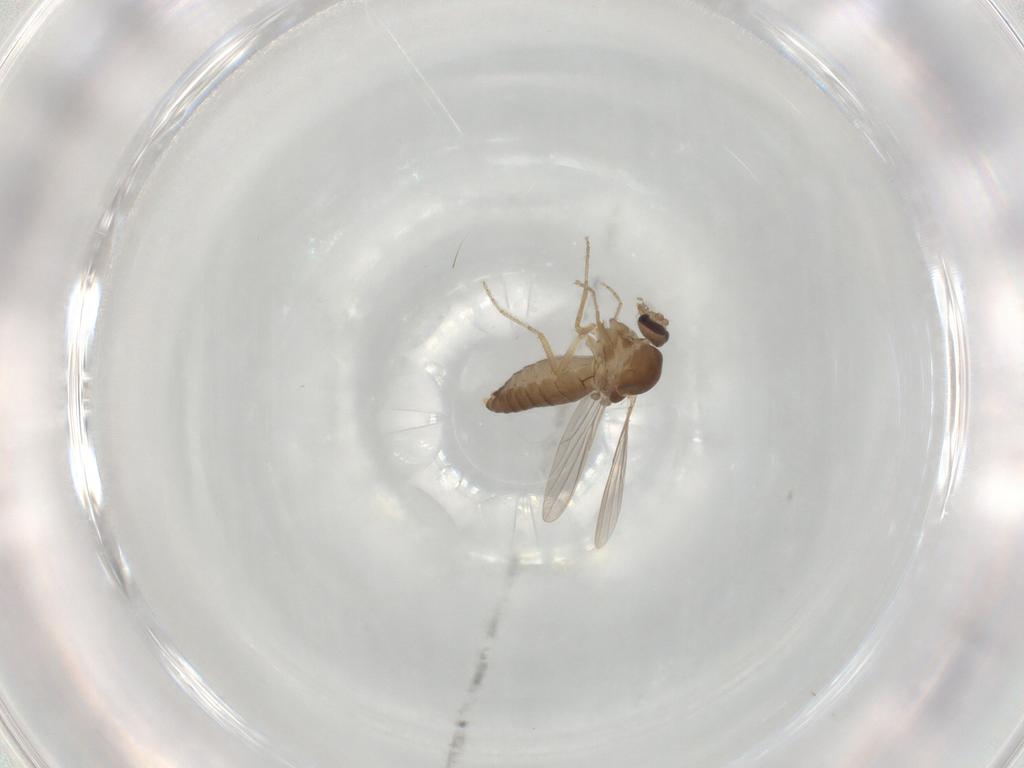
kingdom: Animalia
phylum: Arthropoda
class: Insecta
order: Diptera
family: Ceratopogonidae
